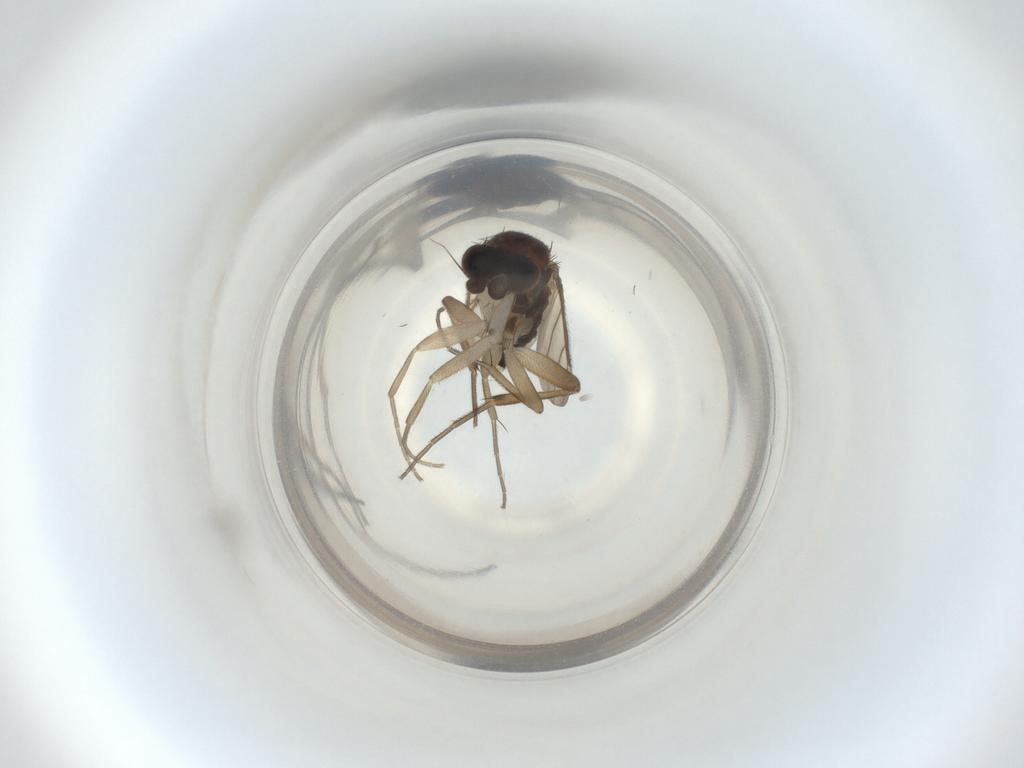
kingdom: Animalia
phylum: Arthropoda
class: Insecta
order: Diptera
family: Phoridae
